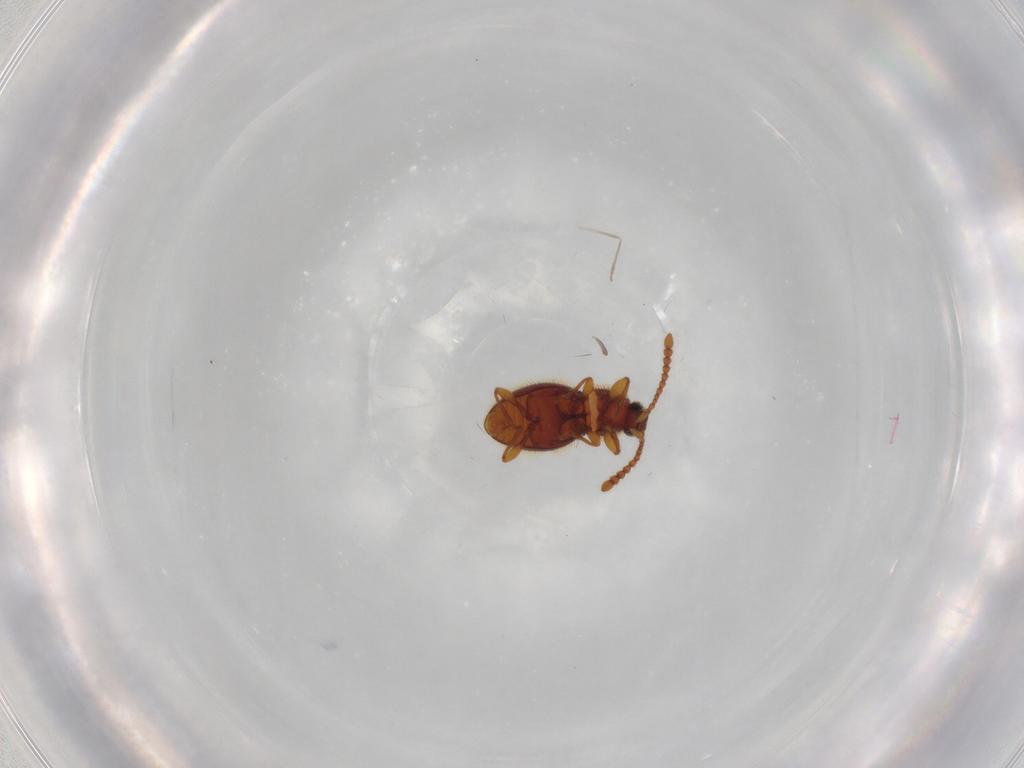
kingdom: Animalia
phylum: Arthropoda
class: Insecta
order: Coleoptera
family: Staphylinidae
